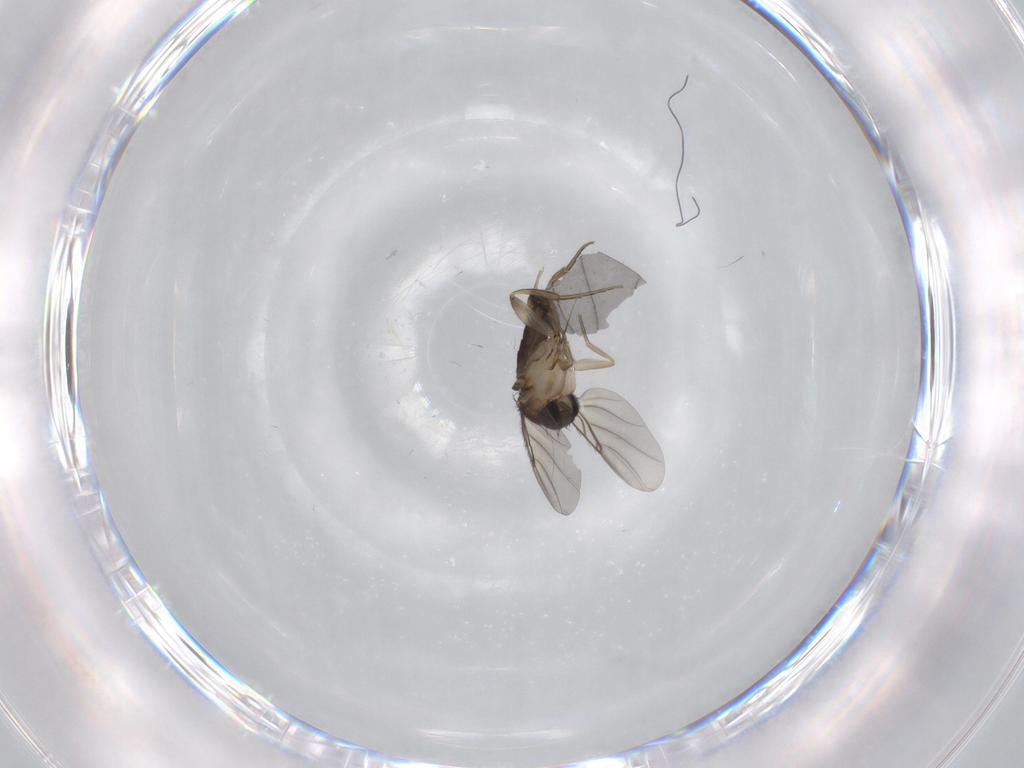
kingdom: Animalia
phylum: Arthropoda
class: Insecta
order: Diptera
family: Phoridae
